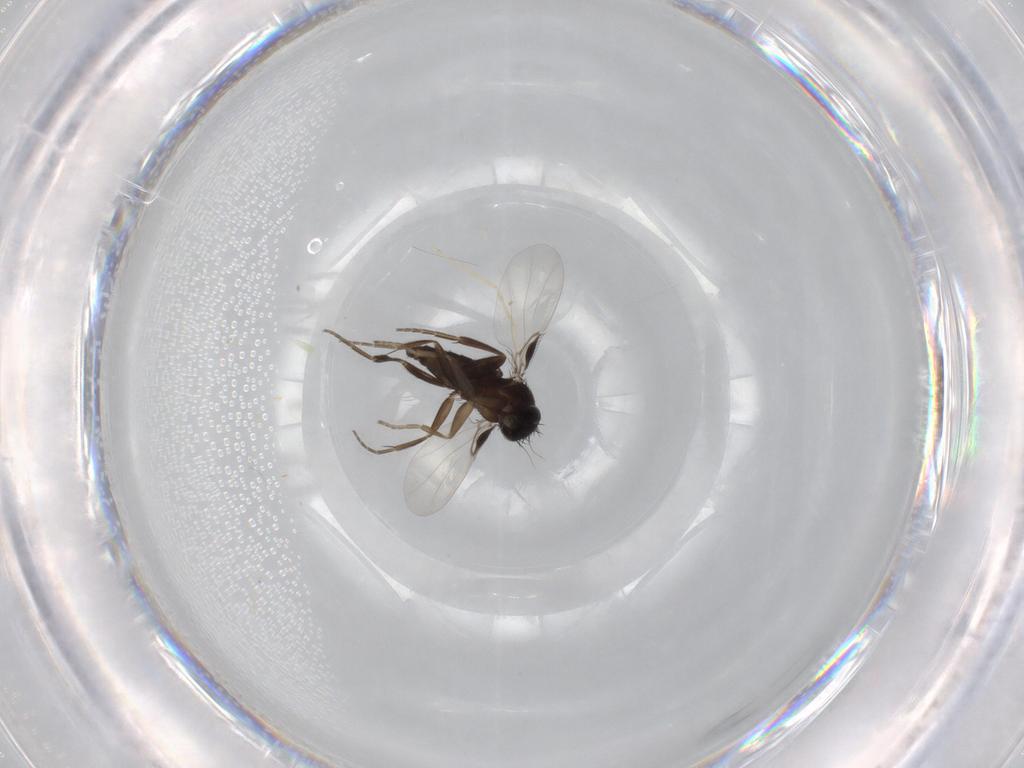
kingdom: Animalia
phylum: Arthropoda
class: Insecta
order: Diptera
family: Cecidomyiidae
